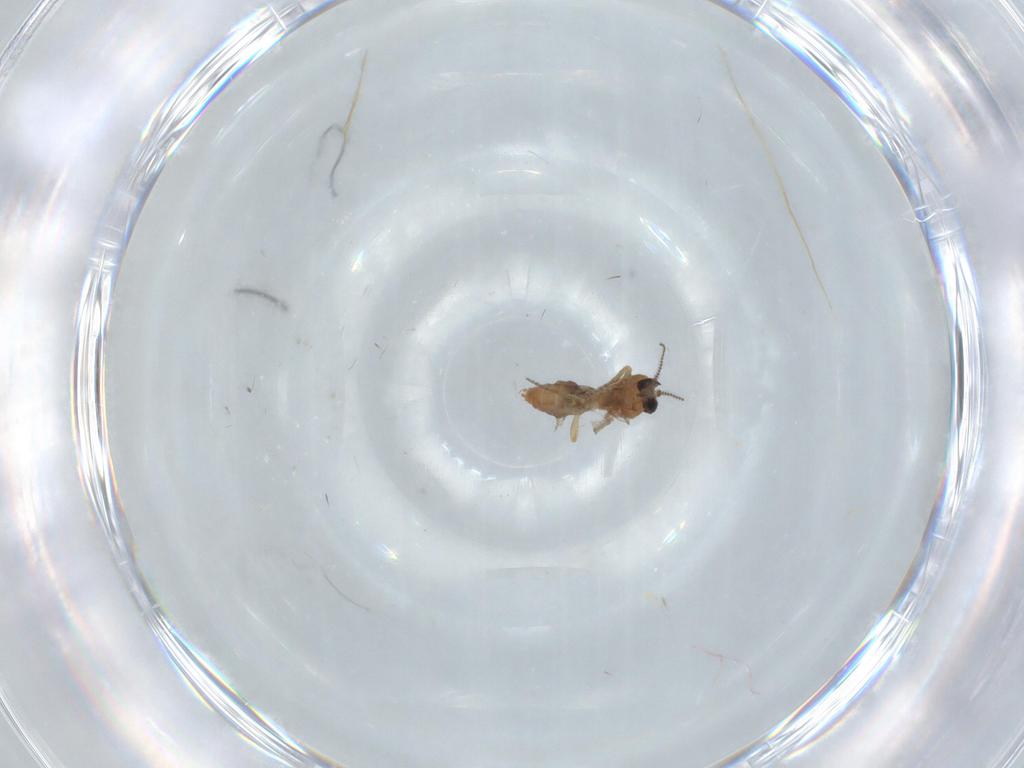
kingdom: Animalia
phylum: Arthropoda
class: Insecta
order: Diptera
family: Ceratopogonidae
